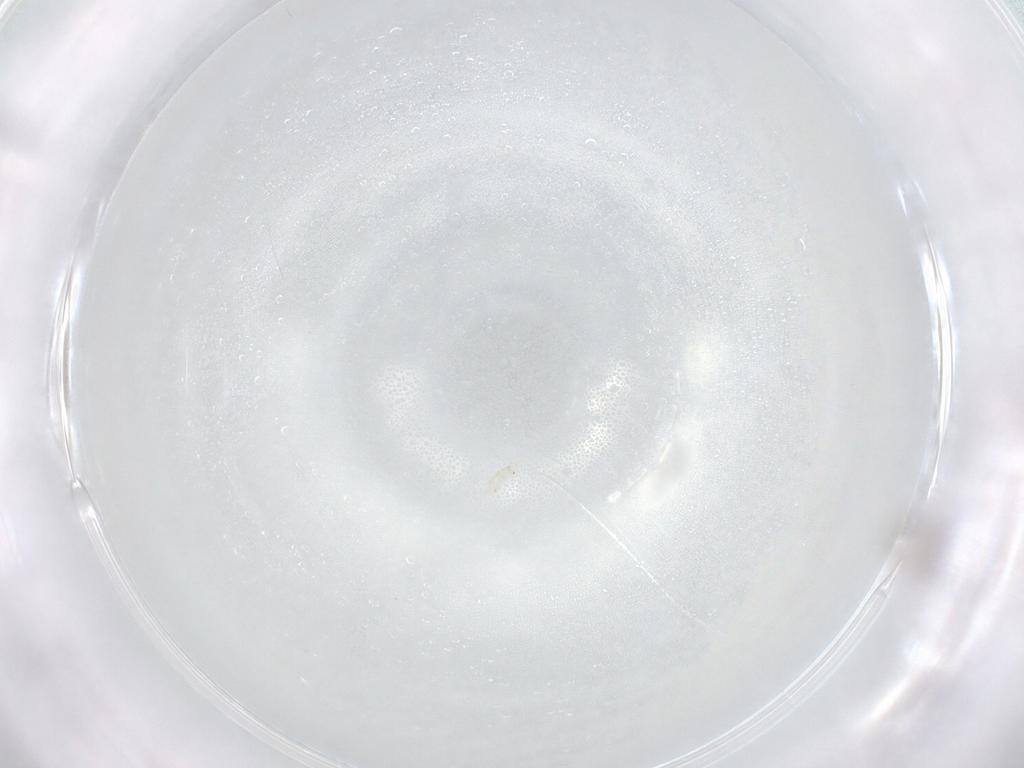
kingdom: Animalia
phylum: Arthropoda
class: Insecta
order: Hymenoptera
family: Mymaridae
